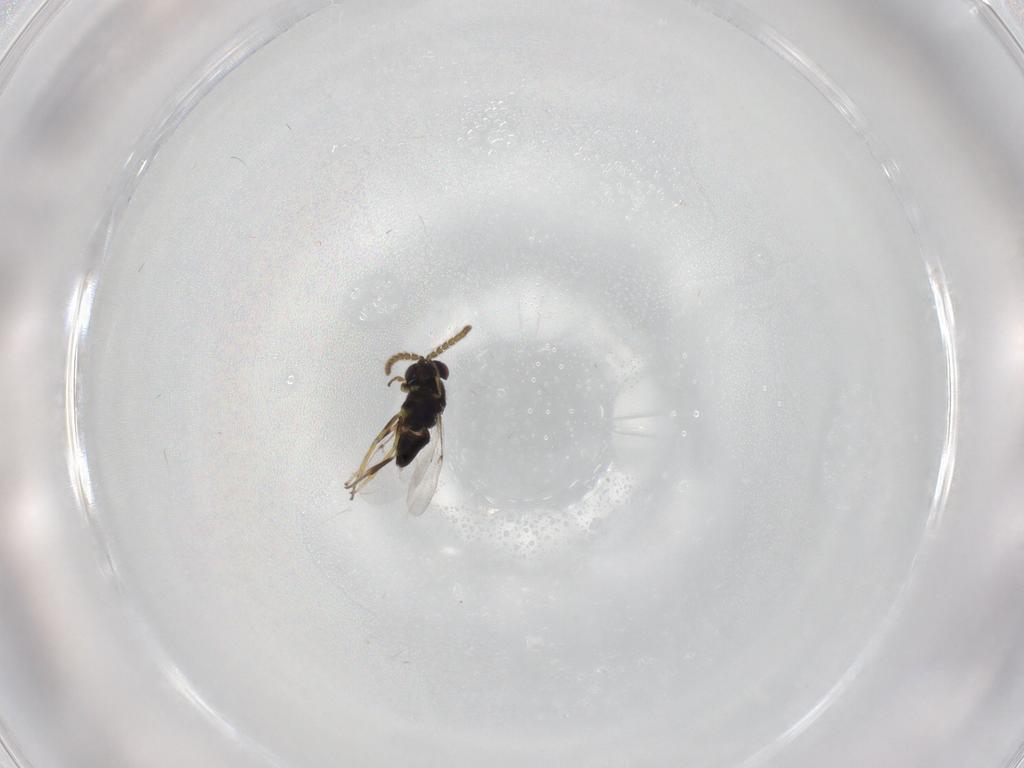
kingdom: Animalia
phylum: Arthropoda
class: Insecta
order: Hymenoptera
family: Encyrtidae
